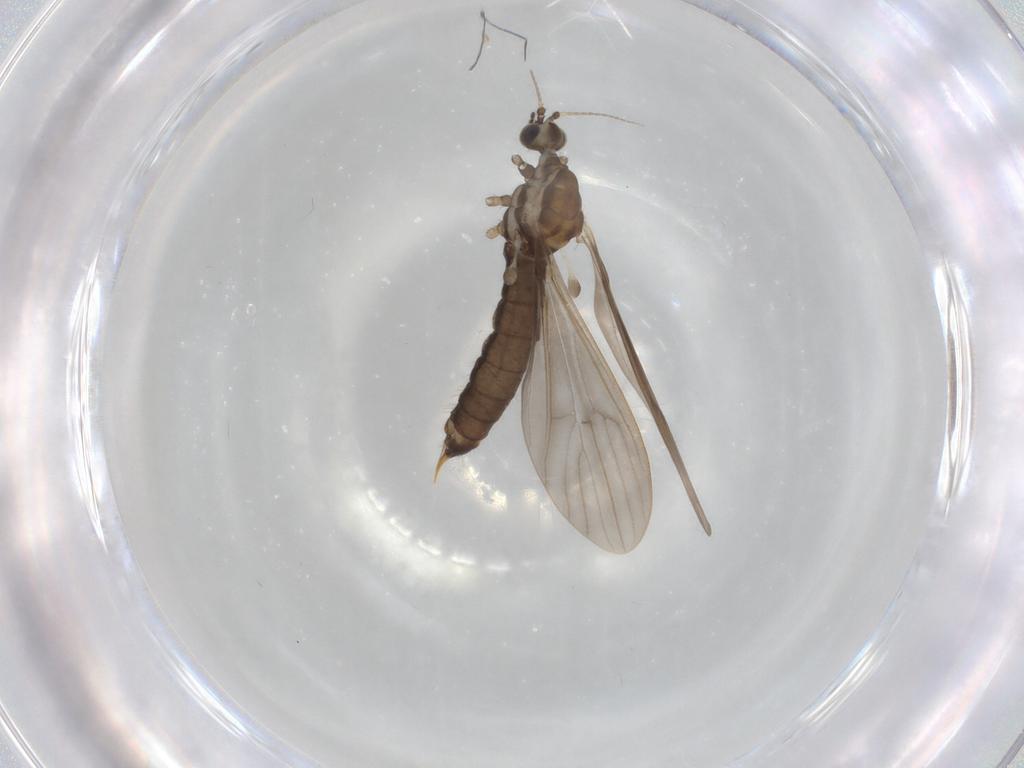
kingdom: Animalia
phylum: Arthropoda
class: Insecta
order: Diptera
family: Limoniidae
